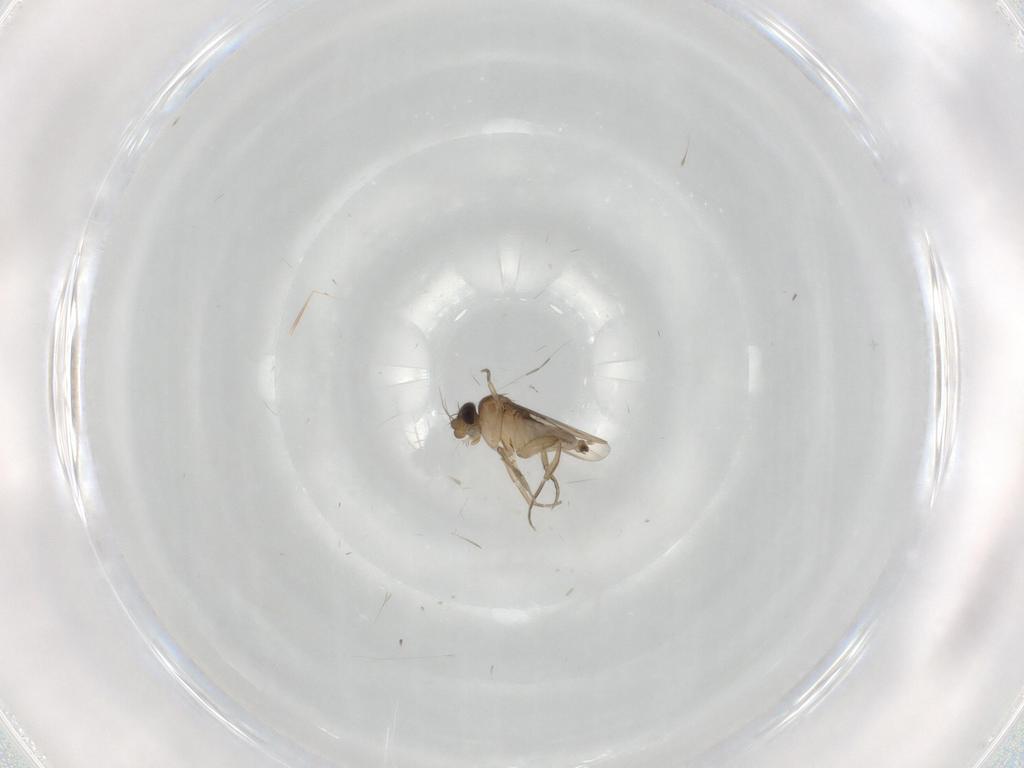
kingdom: Animalia
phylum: Arthropoda
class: Insecta
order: Diptera
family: Phoridae
